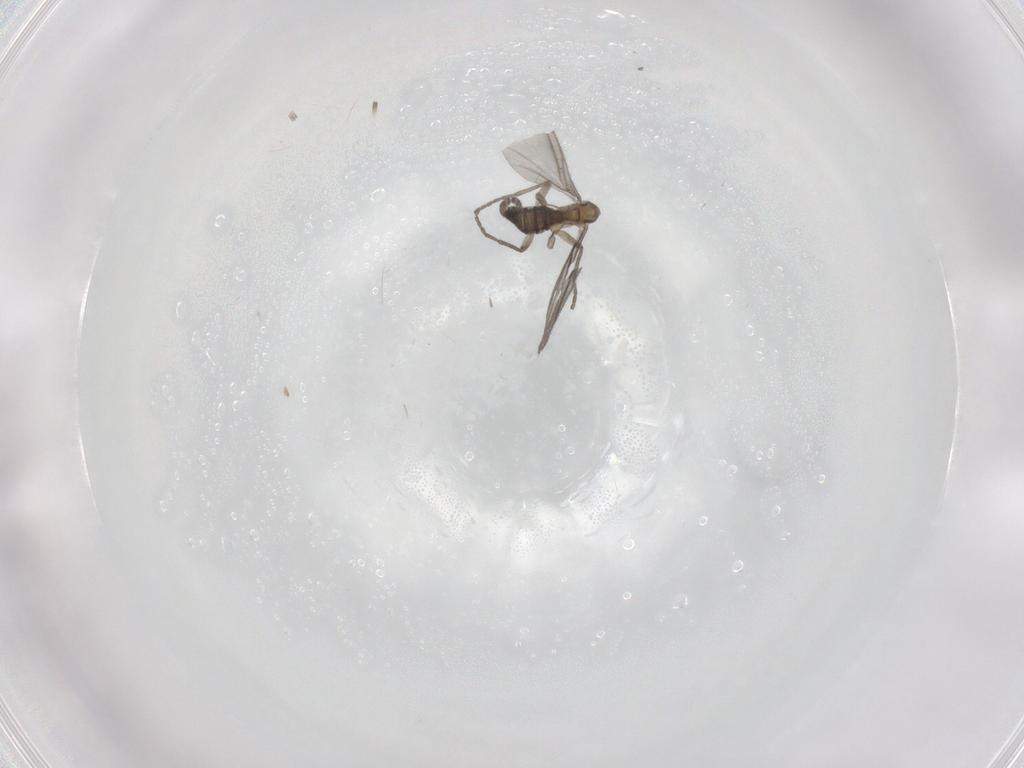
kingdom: Animalia
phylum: Arthropoda
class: Insecta
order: Diptera
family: Sciaridae
